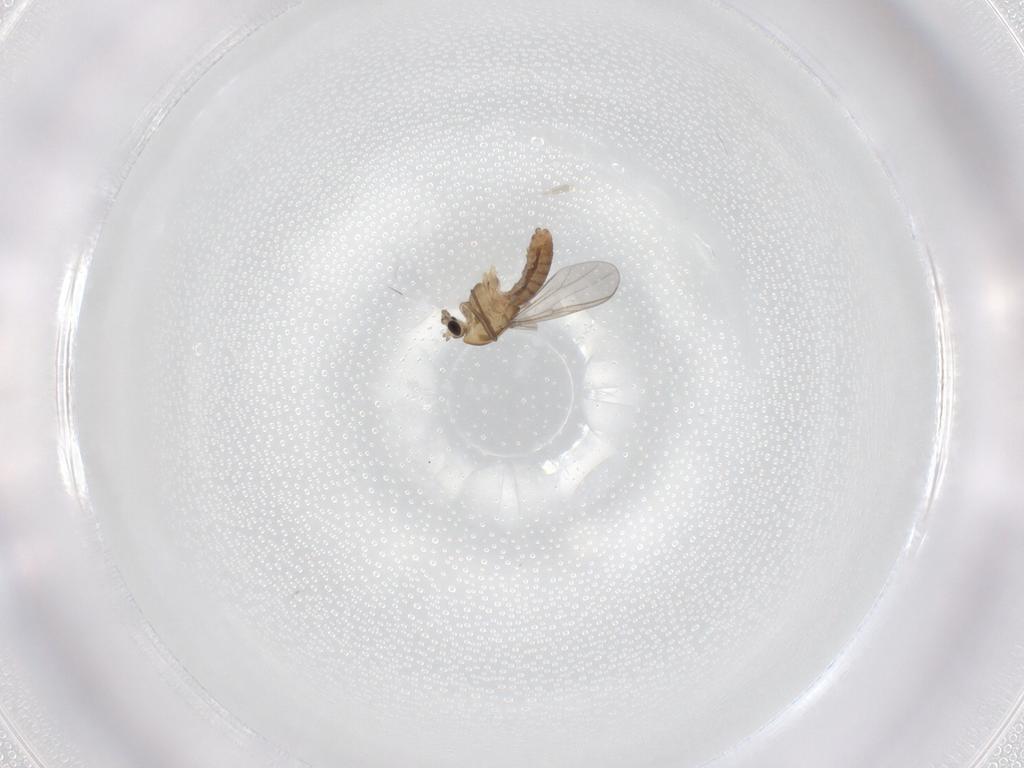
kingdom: Animalia
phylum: Arthropoda
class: Insecta
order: Diptera
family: Chironomidae
